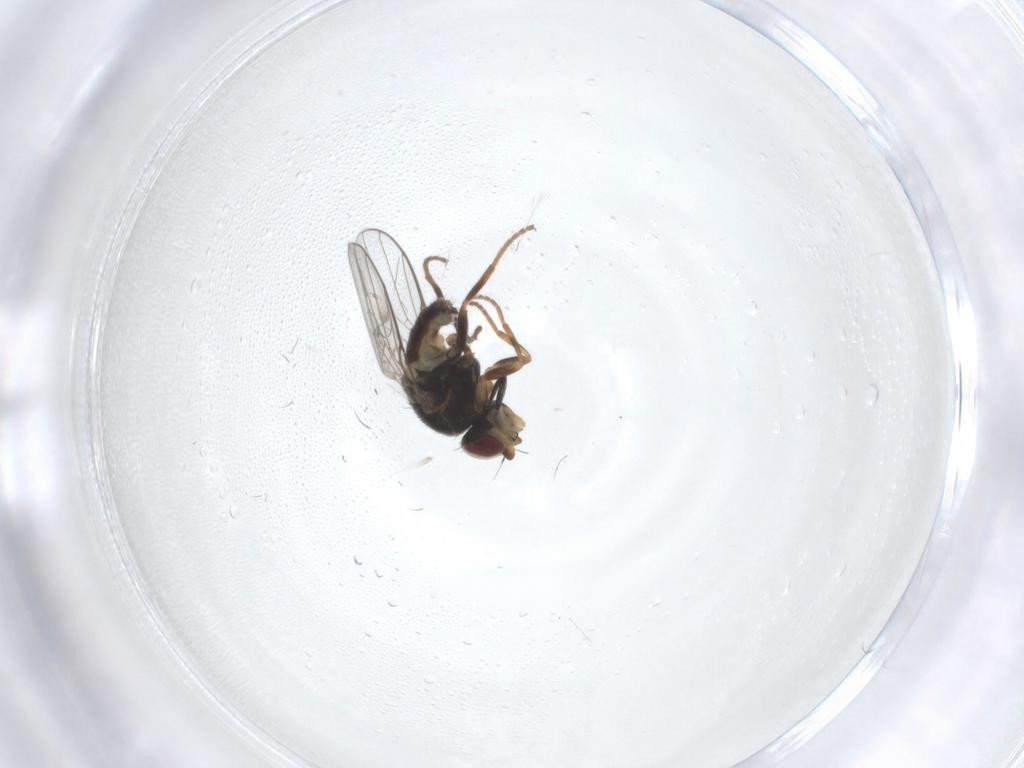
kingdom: Animalia
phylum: Arthropoda
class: Insecta
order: Diptera
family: Chloropidae
